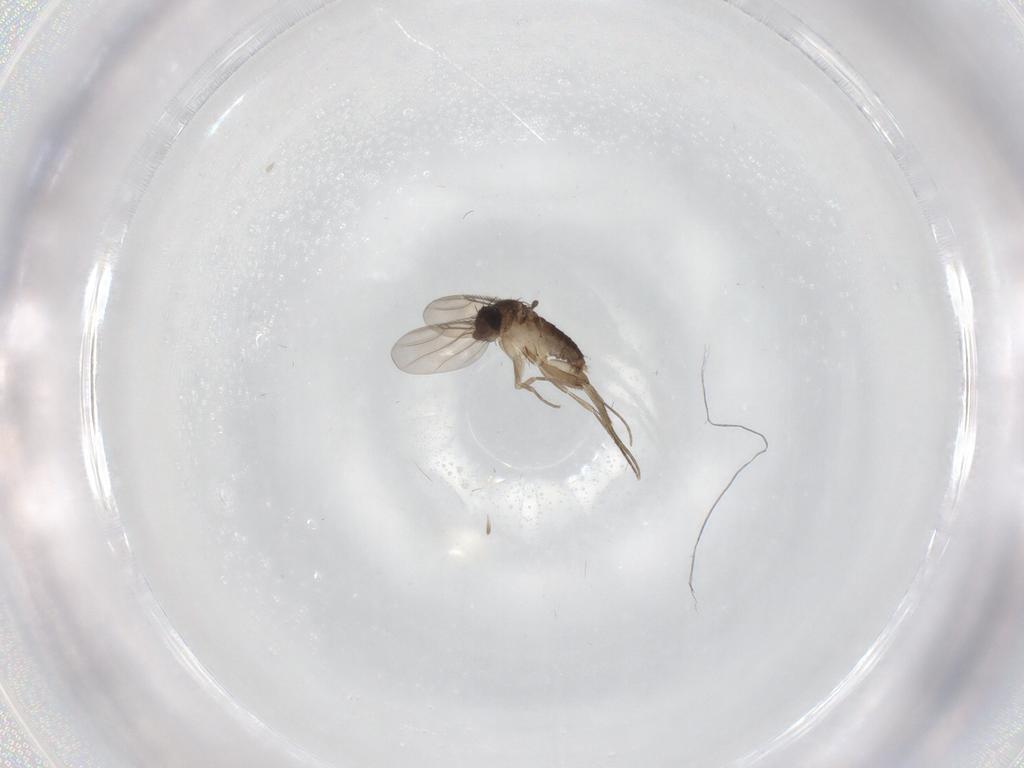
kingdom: Animalia
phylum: Arthropoda
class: Insecta
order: Diptera
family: Phoridae
